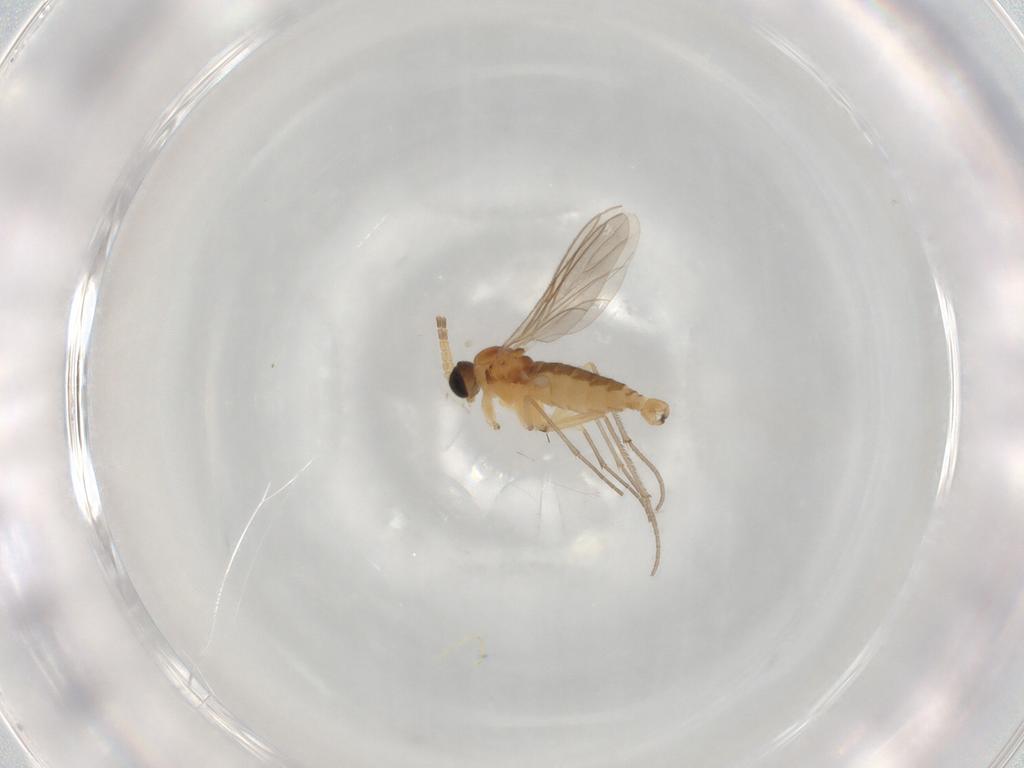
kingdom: Animalia
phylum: Arthropoda
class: Insecta
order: Diptera
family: Sciaridae
